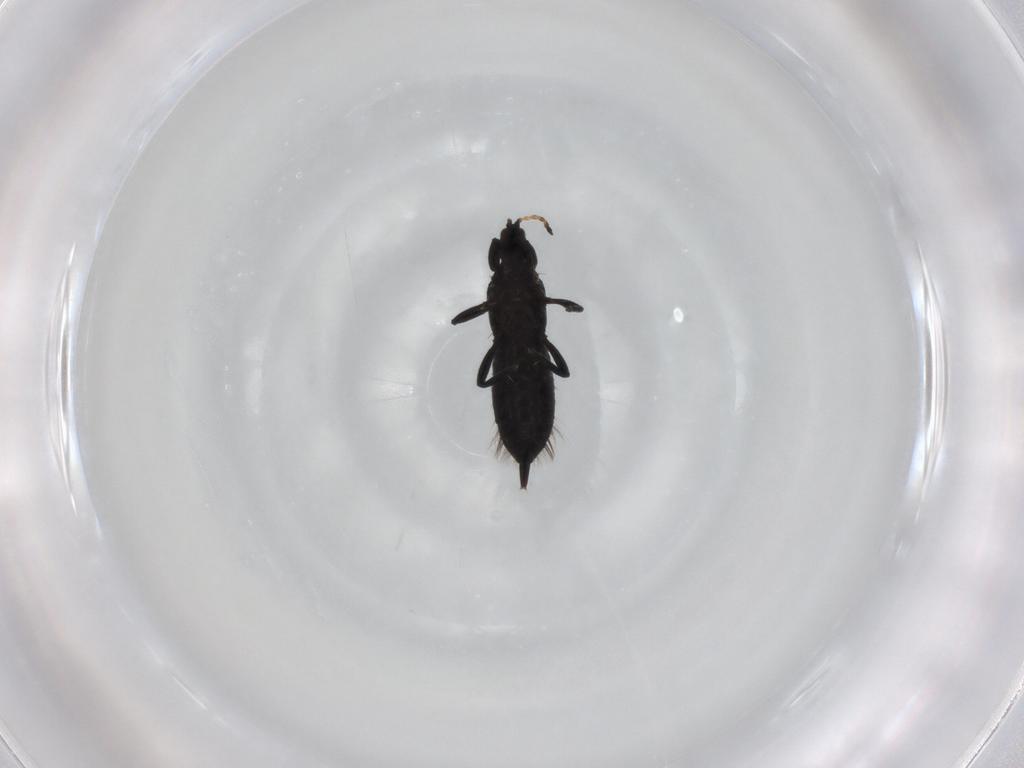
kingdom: Animalia
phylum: Arthropoda
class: Insecta
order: Thysanoptera
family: Phlaeothripidae
